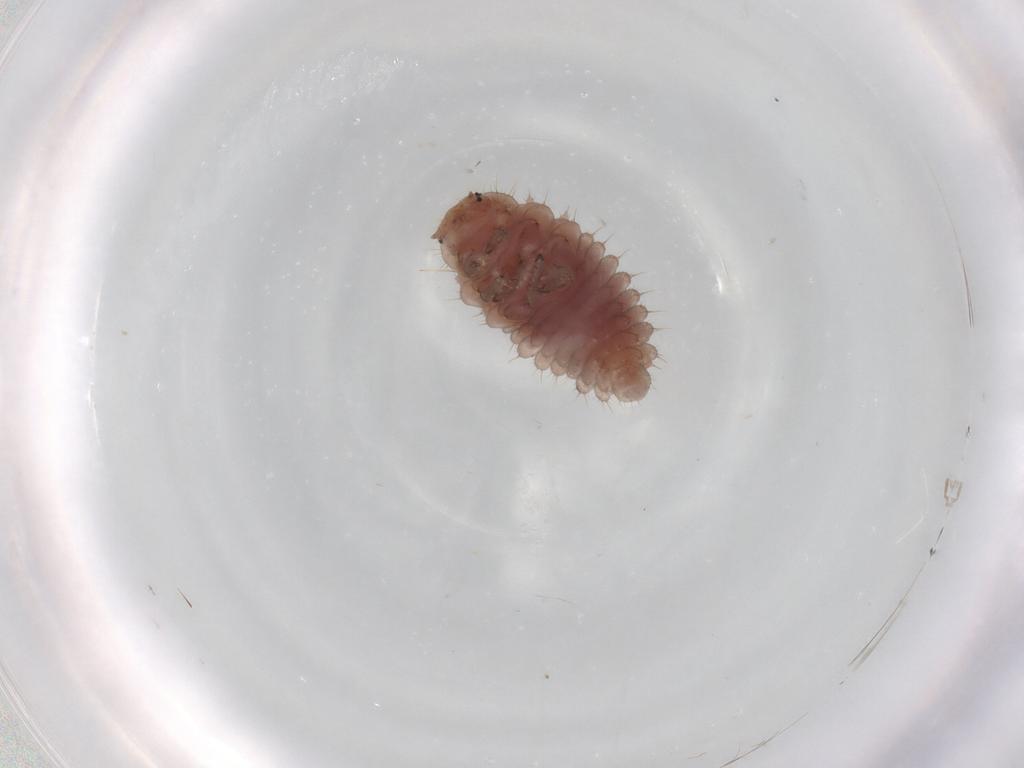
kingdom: Animalia
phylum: Arthropoda
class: Insecta
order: Coleoptera
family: Coccinellidae
